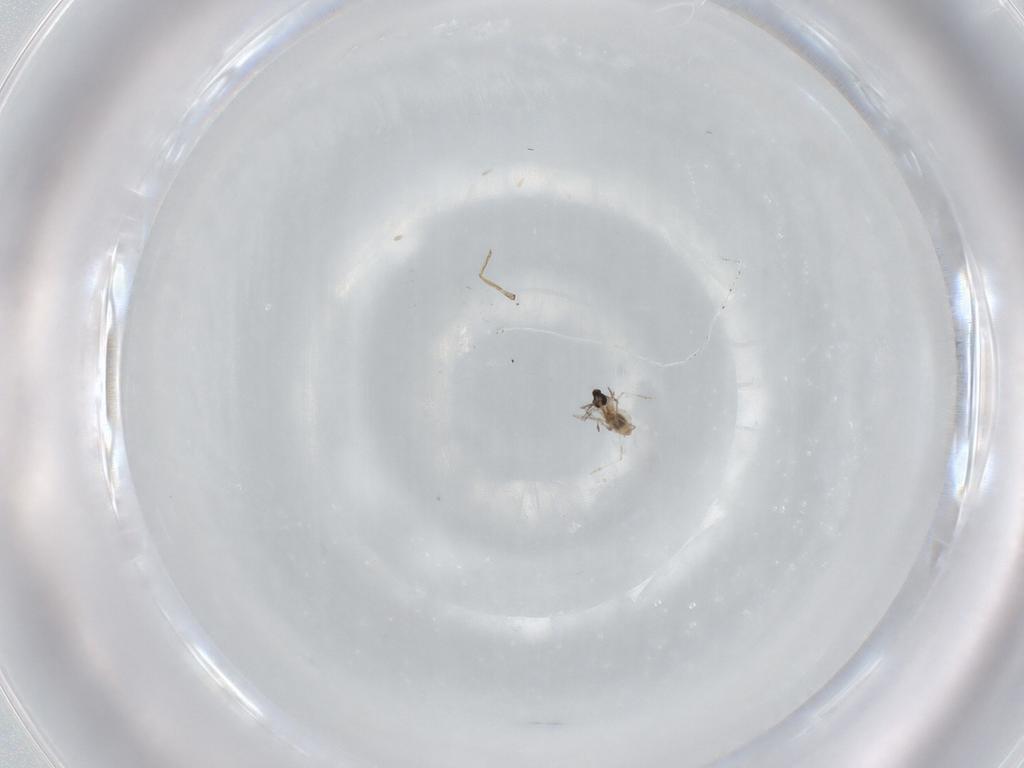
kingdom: Animalia
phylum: Arthropoda
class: Insecta
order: Diptera
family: Cecidomyiidae
